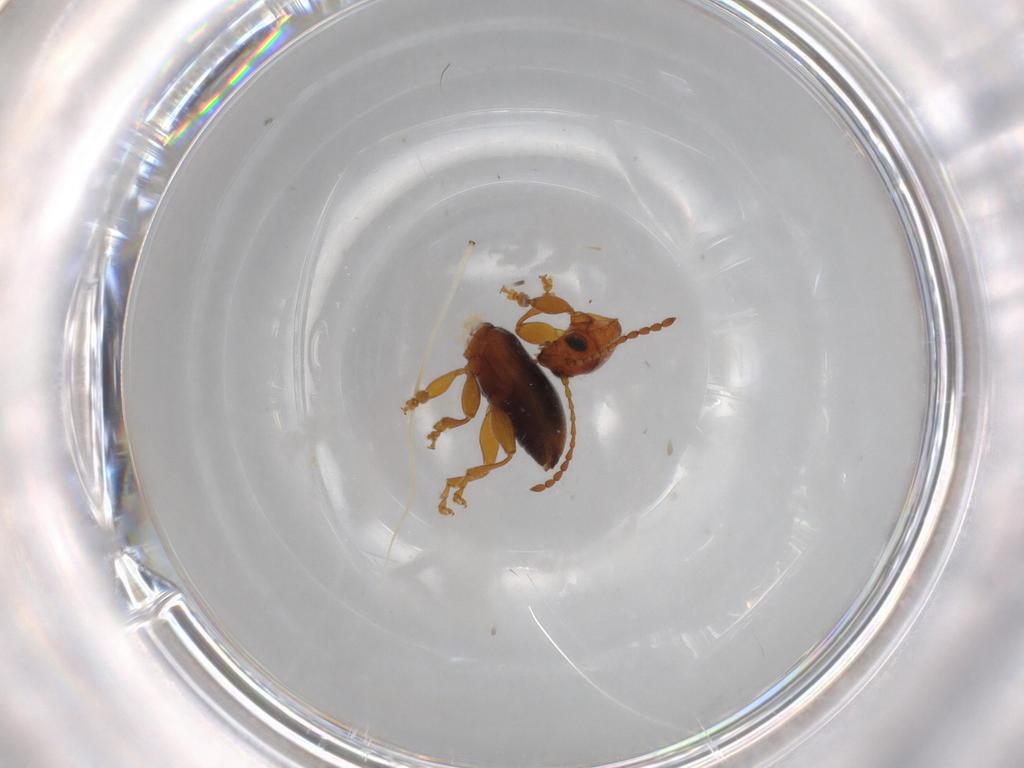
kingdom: Animalia
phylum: Arthropoda
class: Insecta
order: Coleoptera
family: Chrysomelidae
